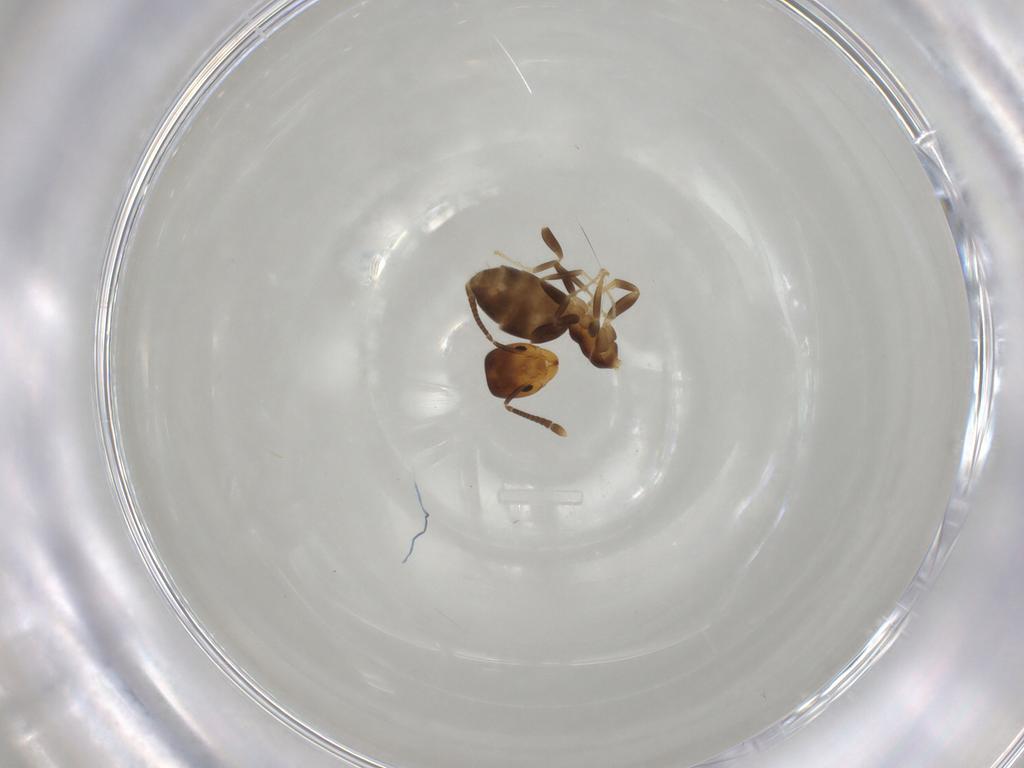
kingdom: Animalia
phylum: Arthropoda
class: Insecta
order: Hymenoptera
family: Formicidae
